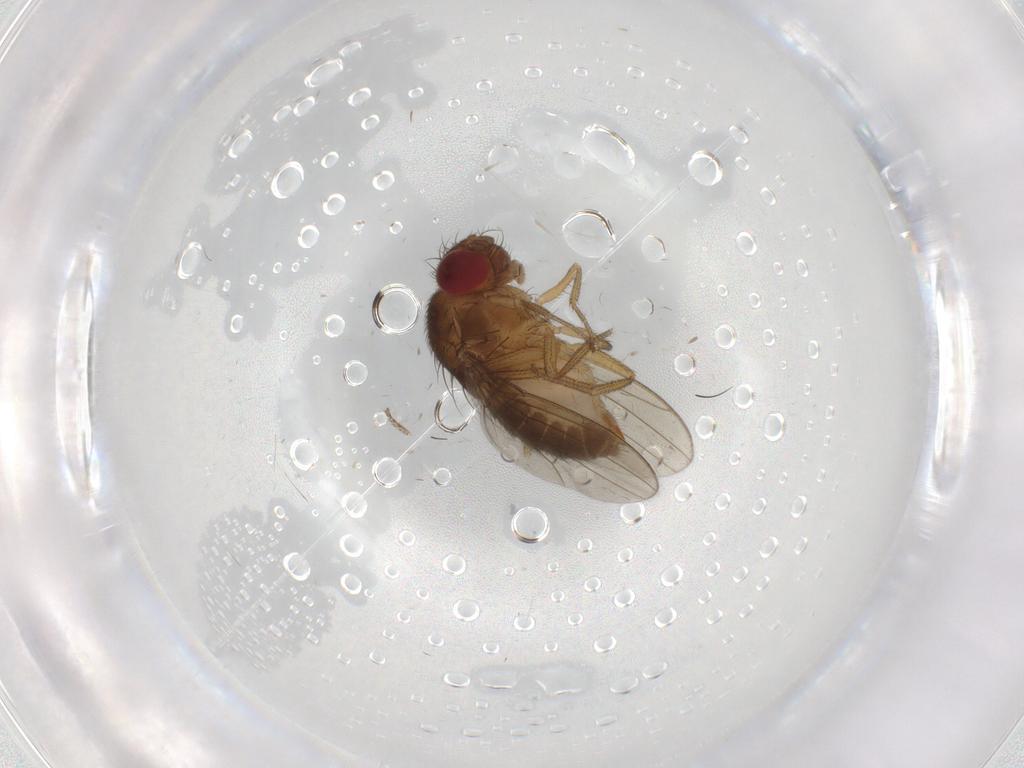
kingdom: Animalia
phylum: Arthropoda
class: Insecta
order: Diptera
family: Drosophilidae
